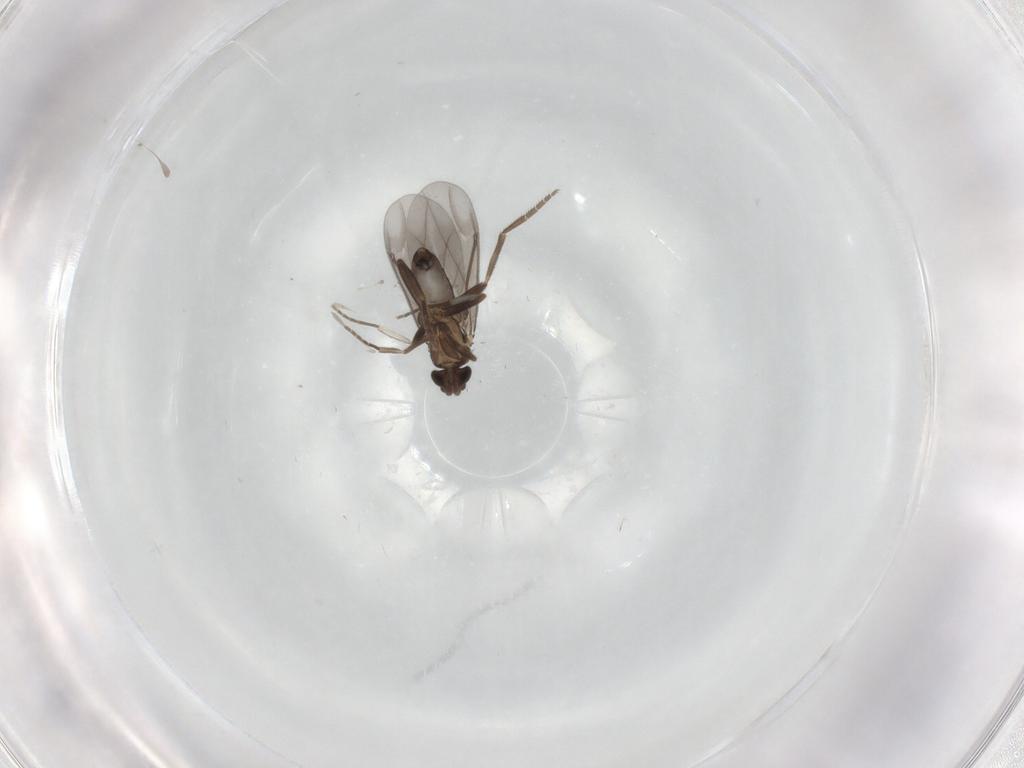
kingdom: Animalia
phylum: Arthropoda
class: Insecta
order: Diptera
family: Phoridae
